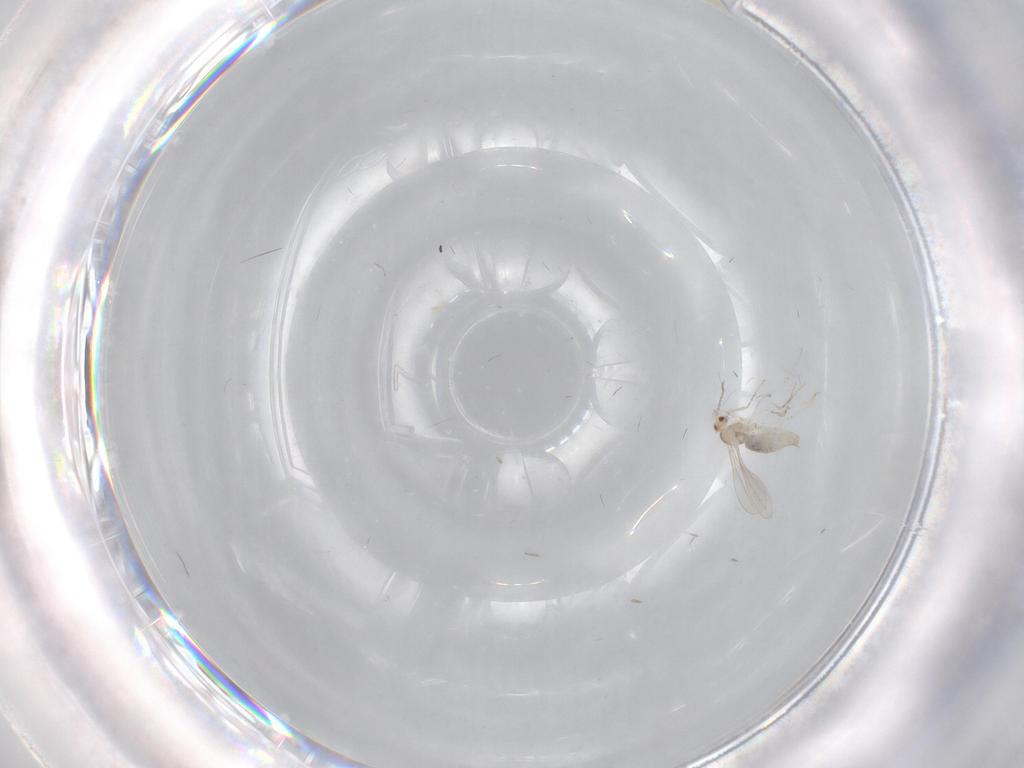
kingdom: Animalia
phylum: Arthropoda
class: Insecta
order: Diptera
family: Cecidomyiidae
